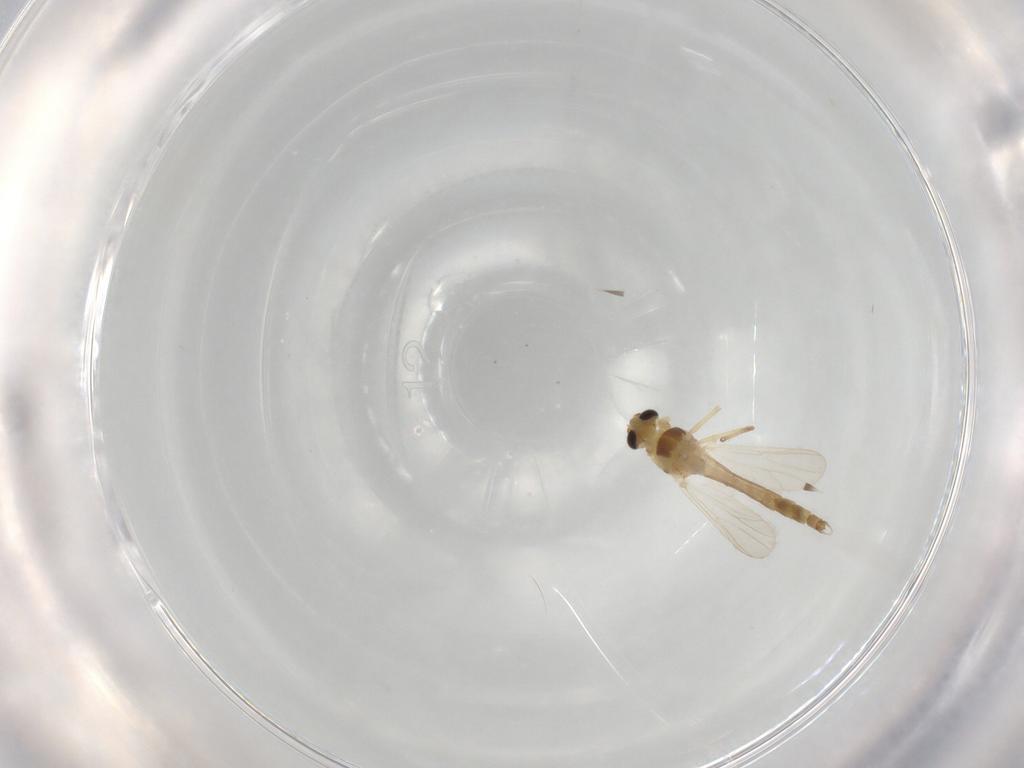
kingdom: Animalia
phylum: Arthropoda
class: Insecta
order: Diptera
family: Chironomidae
